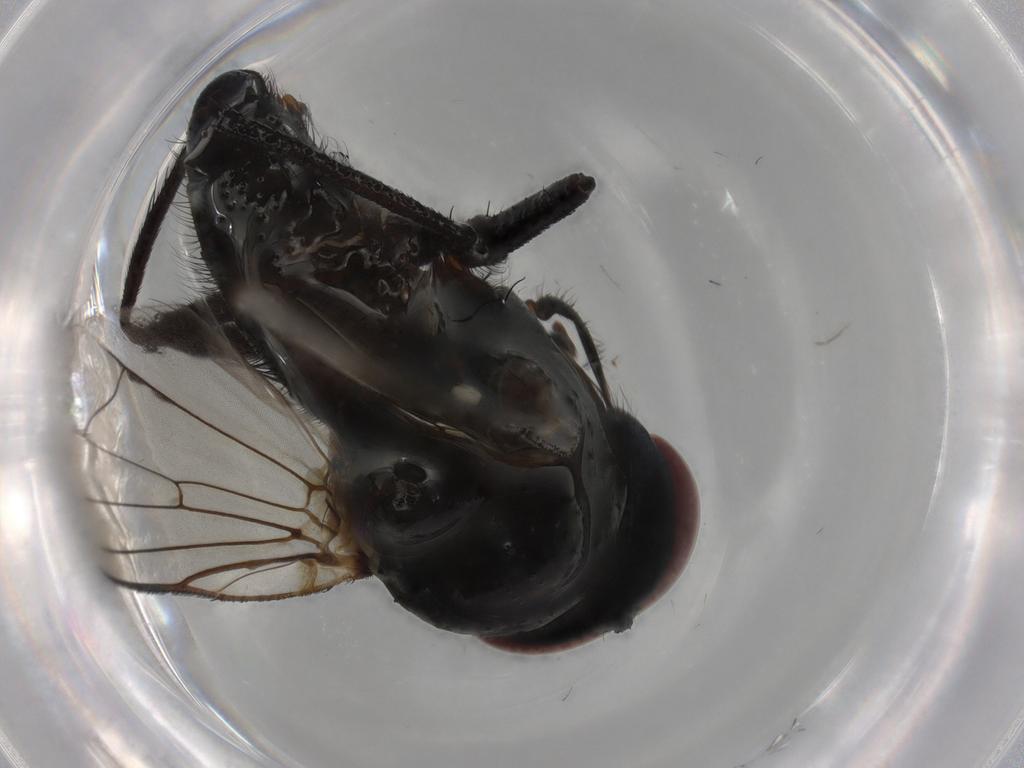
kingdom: Animalia
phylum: Arthropoda
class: Insecta
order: Diptera
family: Anthomyiidae
